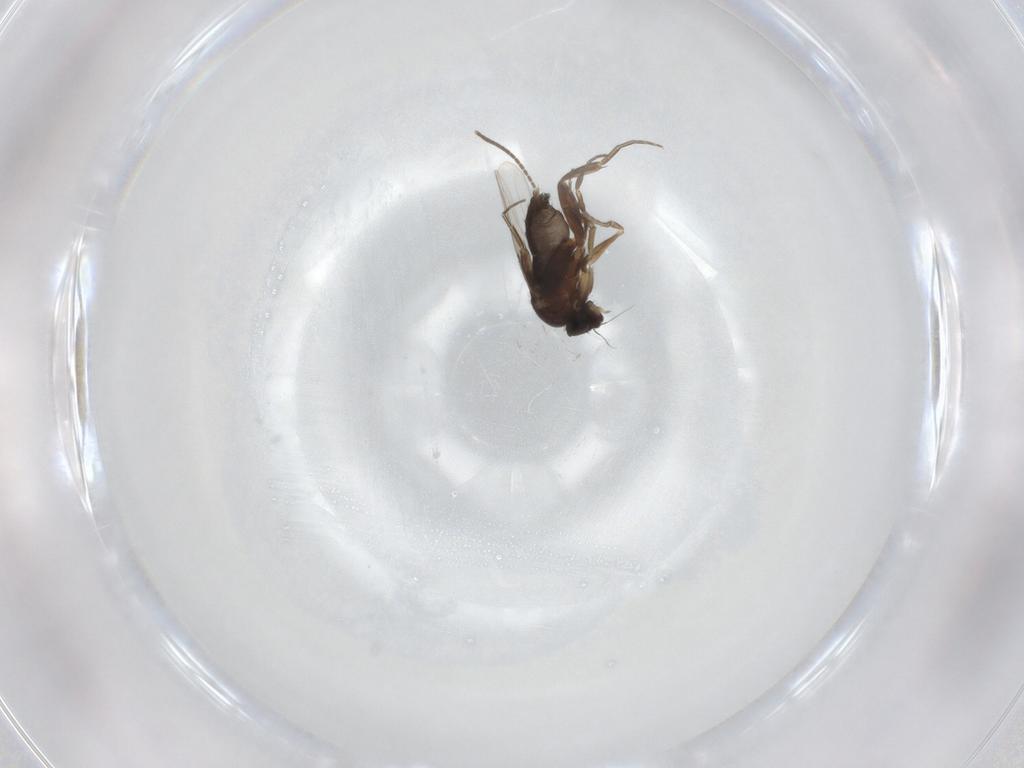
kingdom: Animalia
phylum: Arthropoda
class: Insecta
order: Diptera
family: Phoridae
